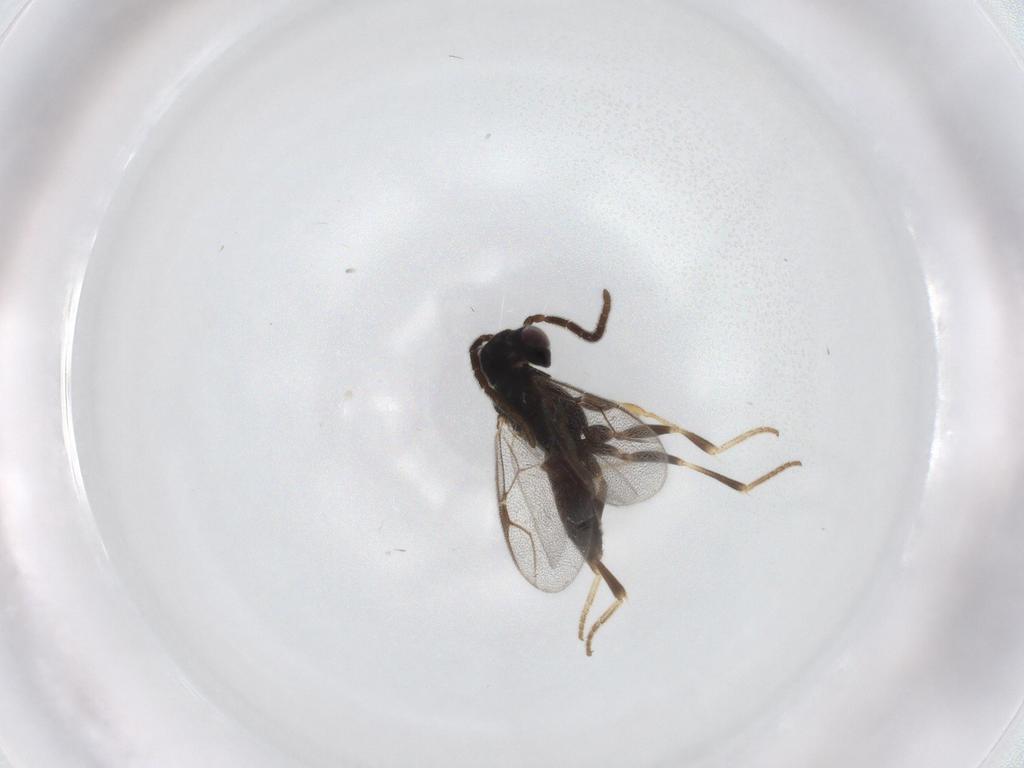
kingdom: Animalia
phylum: Arthropoda
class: Insecta
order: Hymenoptera
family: Dryinidae
